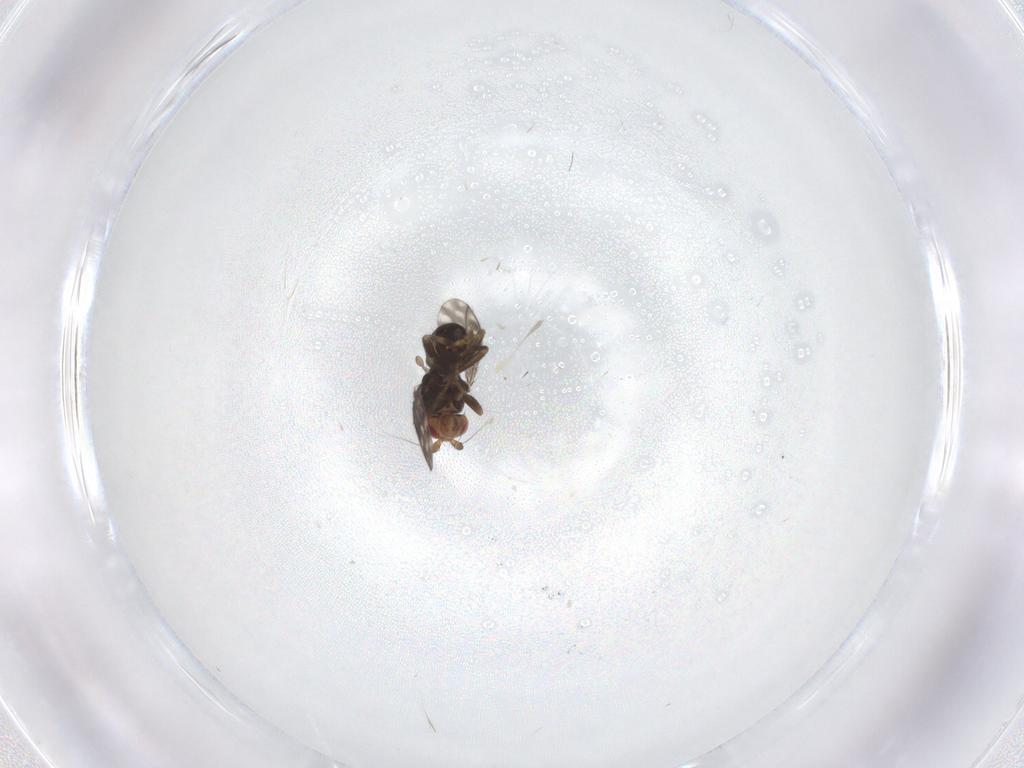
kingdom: Animalia
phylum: Arthropoda
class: Insecta
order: Diptera
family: Sphaeroceridae
